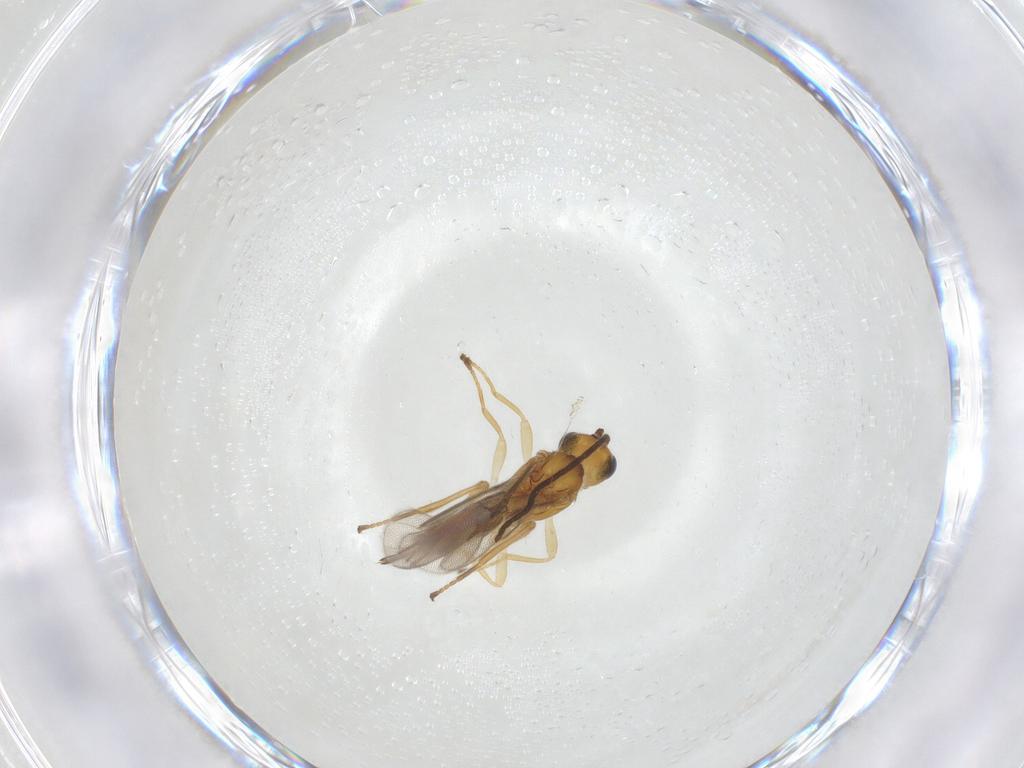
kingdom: Animalia
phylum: Arthropoda
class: Insecta
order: Hymenoptera
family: Braconidae
